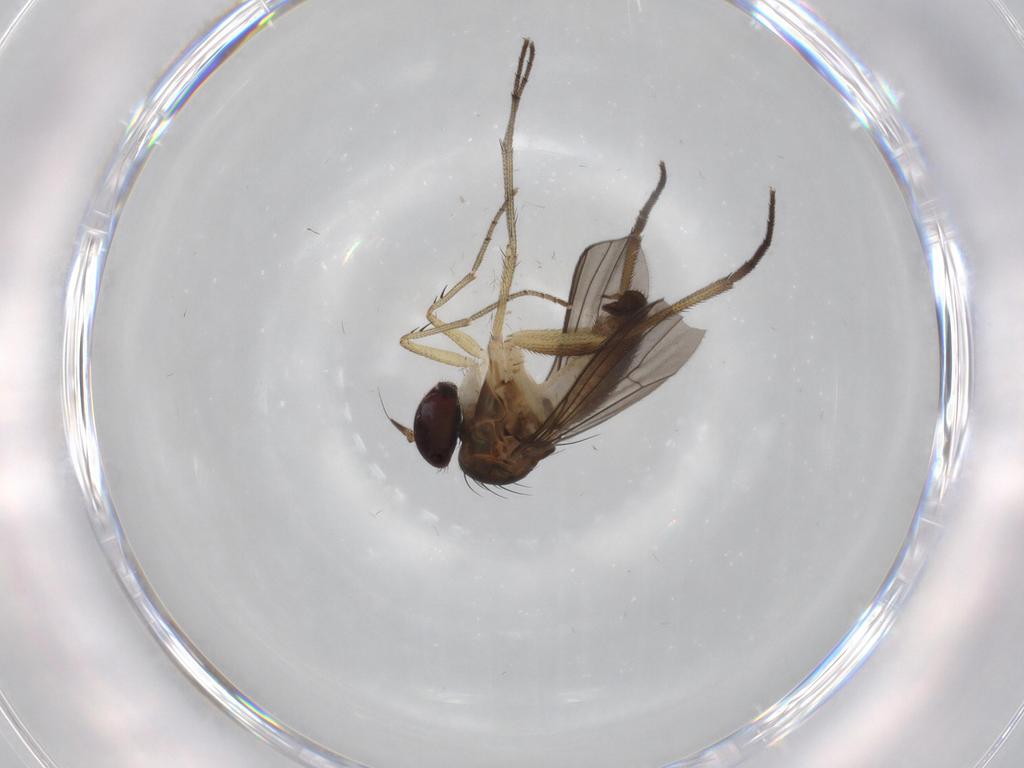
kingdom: Animalia
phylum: Arthropoda
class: Insecta
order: Diptera
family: Dolichopodidae
